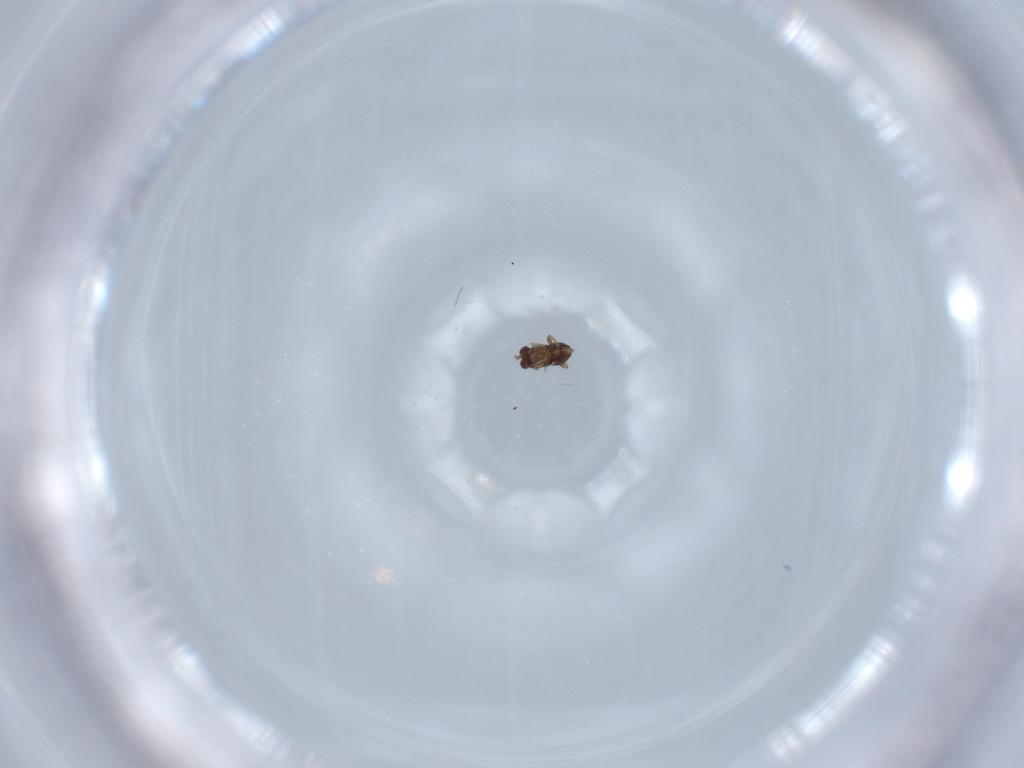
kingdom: Animalia
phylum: Arthropoda
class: Insecta
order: Hymenoptera
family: Trichogrammatidae
